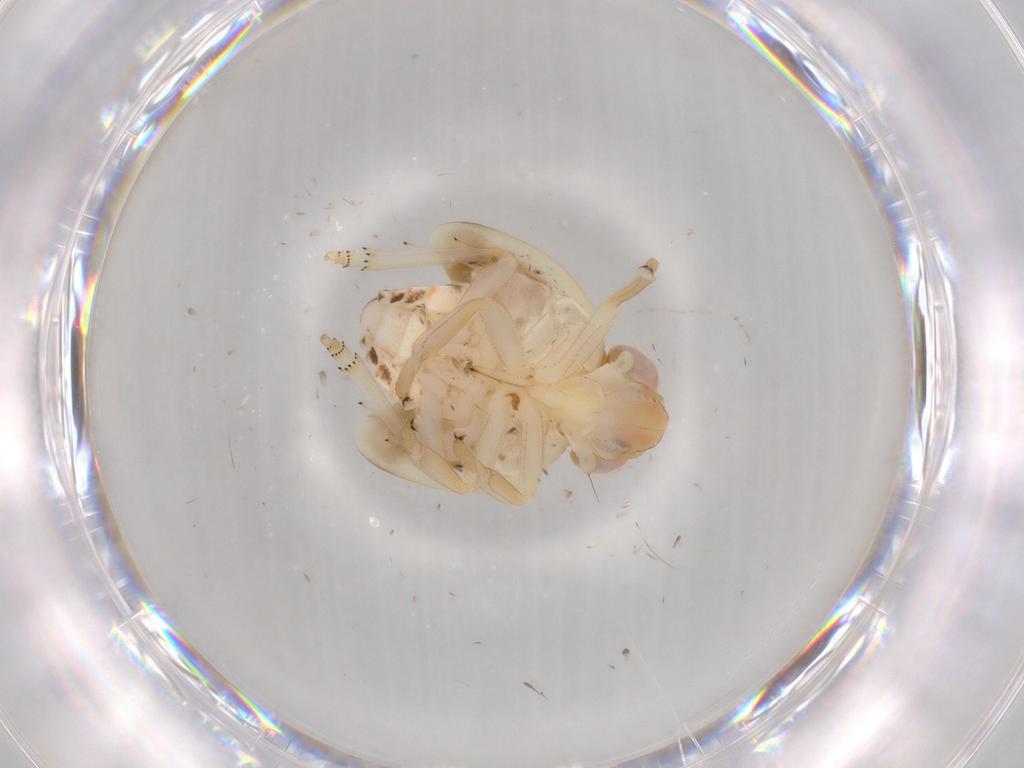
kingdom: Animalia
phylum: Arthropoda
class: Insecta
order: Hemiptera
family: Nogodinidae
